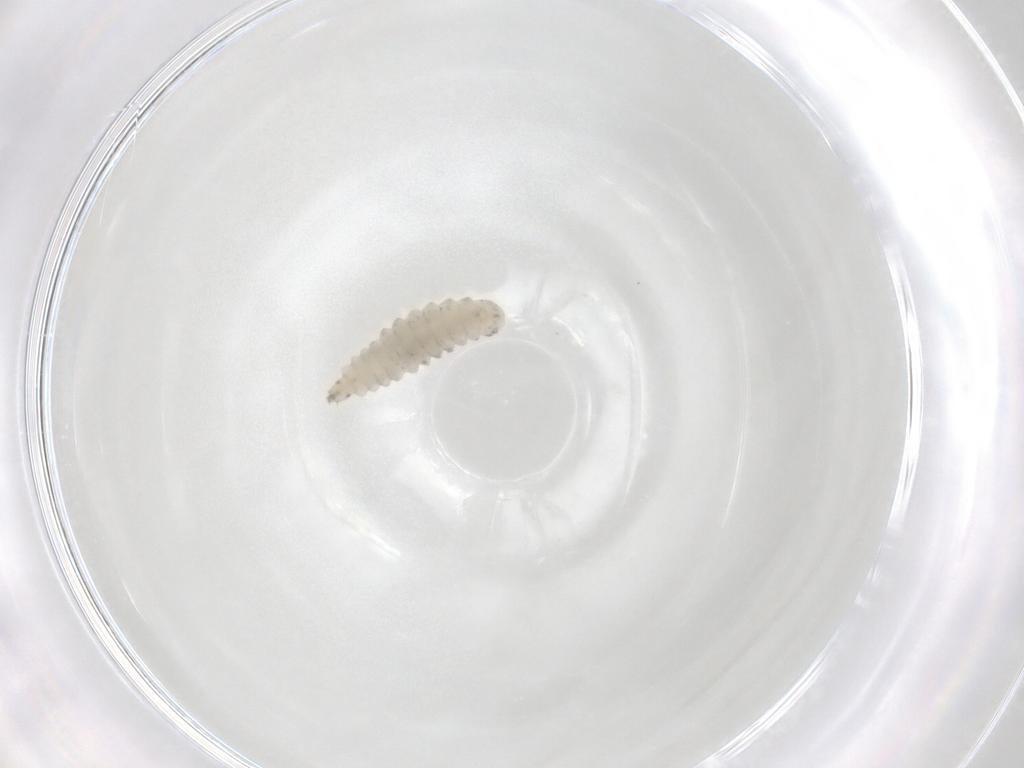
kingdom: Animalia
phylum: Arthropoda
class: Insecta
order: Diptera
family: Stratiomyidae
